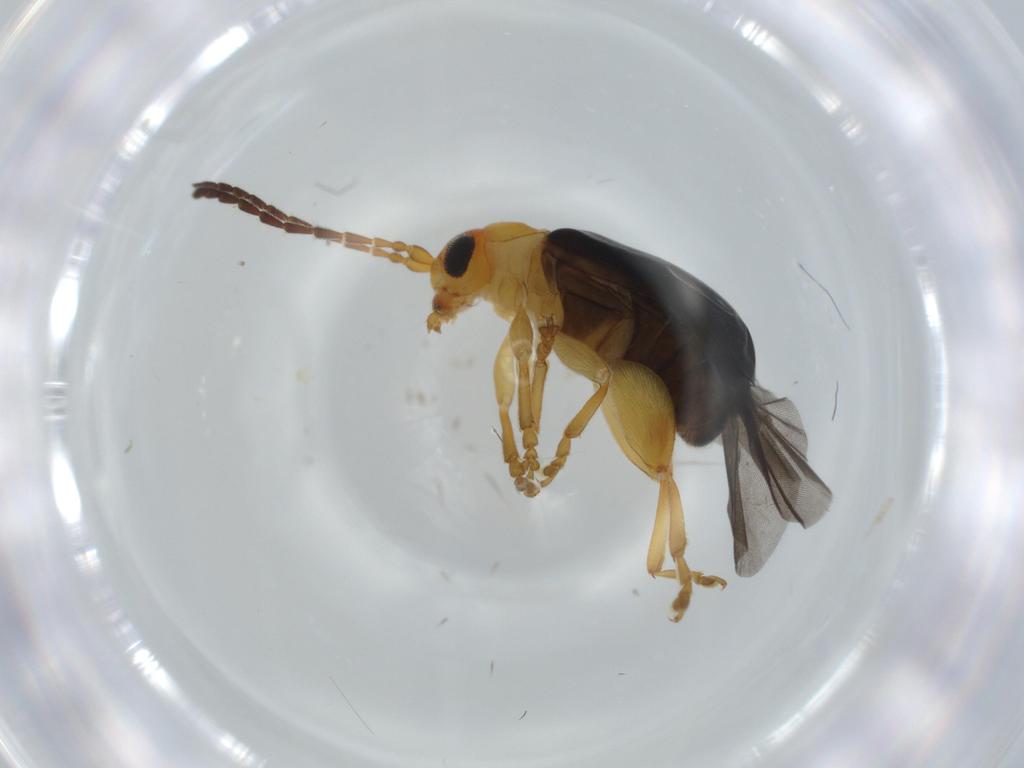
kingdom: Animalia
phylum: Arthropoda
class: Insecta
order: Coleoptera
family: Chrysomelidae
